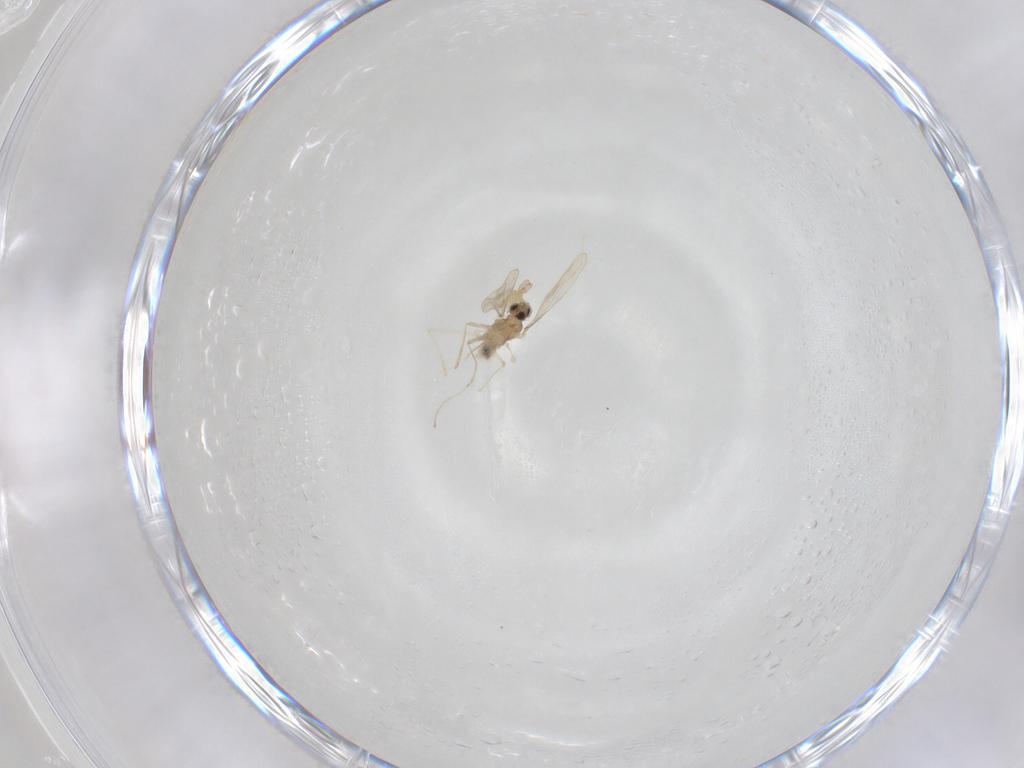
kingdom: Animalia
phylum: Arthropoda
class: Insecta
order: Diptera
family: Cecidomyiidae
